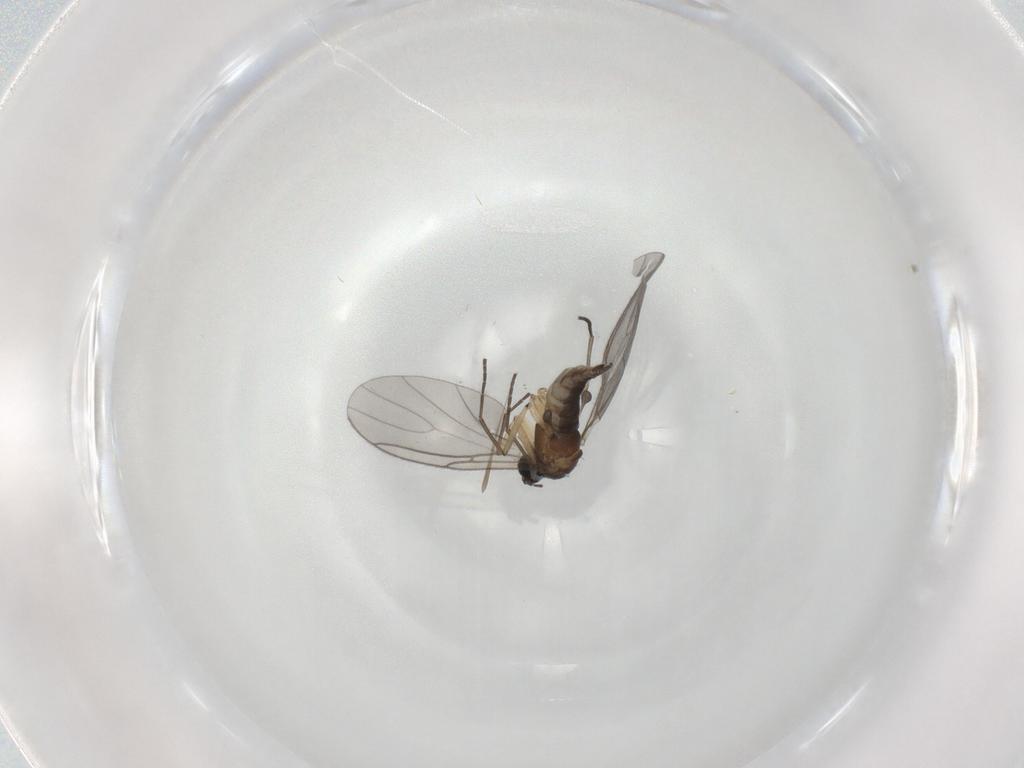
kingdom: Animalia
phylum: Arthropoda
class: Insecta
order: Diptera
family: Sciaridae
